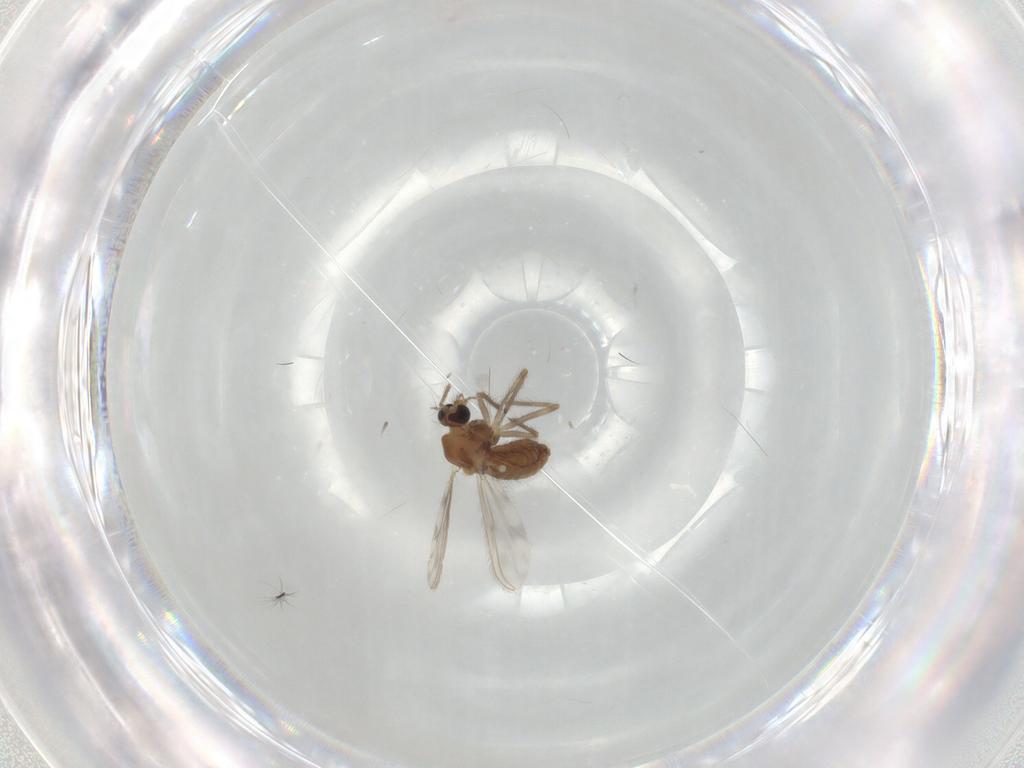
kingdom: Animalia
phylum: Arthropoda
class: Insecta
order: Diptera
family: Chironomidae
